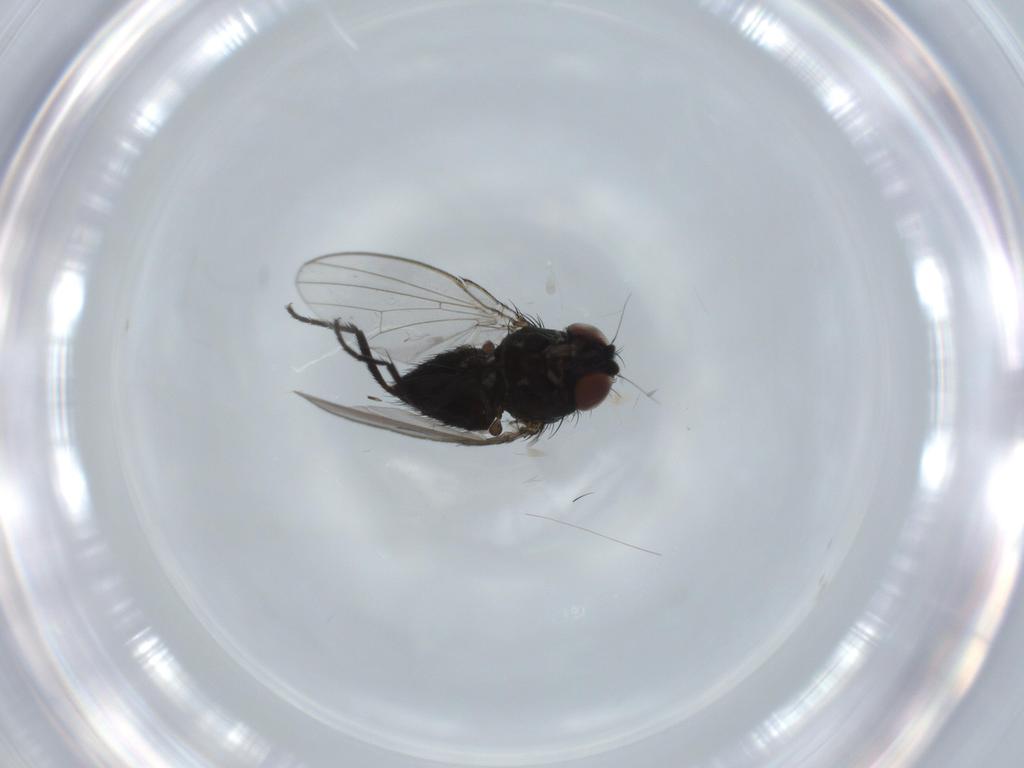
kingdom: Animalia
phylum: Arthropoda
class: Insecta
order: Diptera
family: Milichiidae
